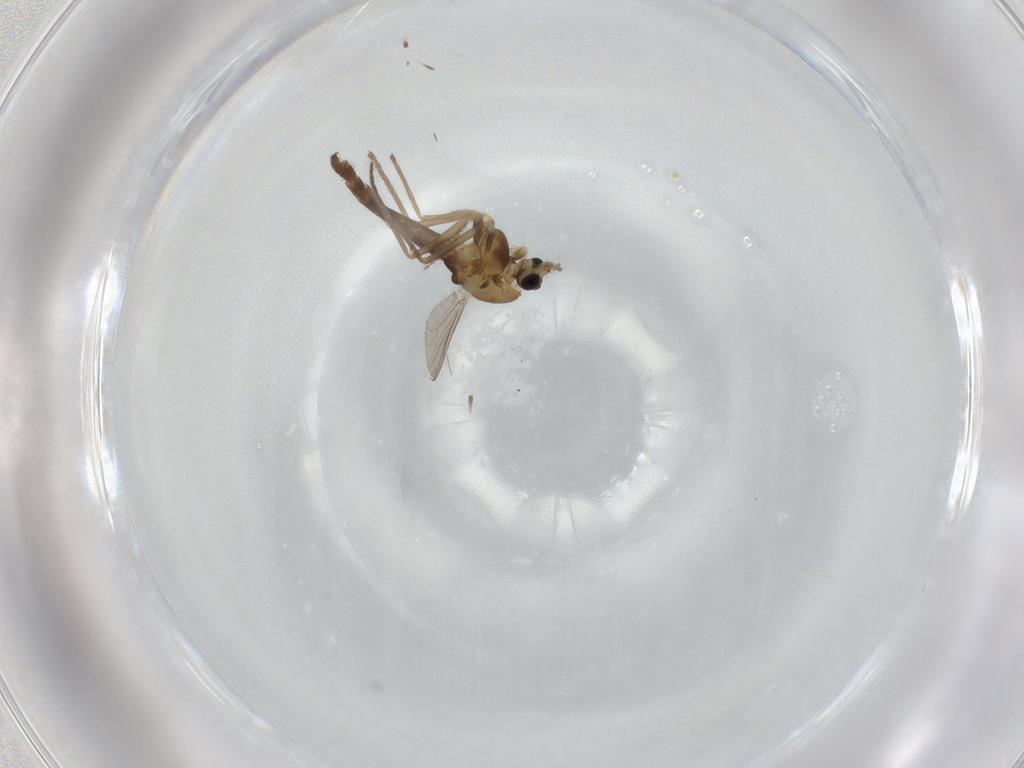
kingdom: Animalia
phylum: Arthropoda
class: Insecta
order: Diptera
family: Chironomidae
